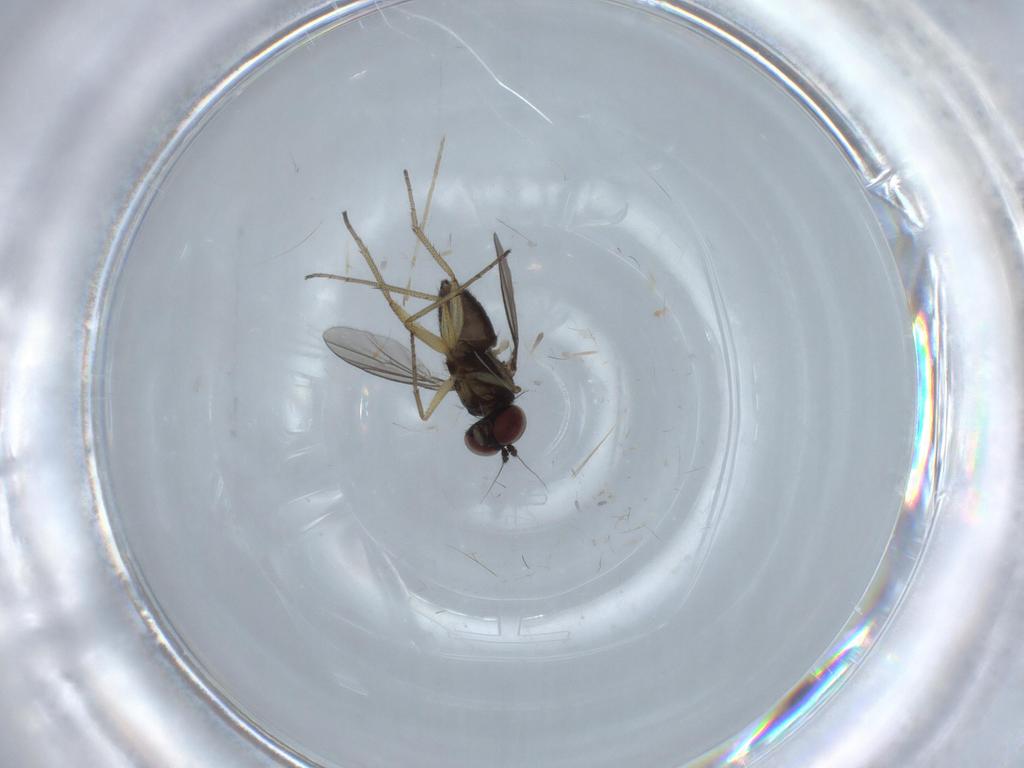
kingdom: Animalia
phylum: Arthropoda
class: Insecta
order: Diptera
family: Dolichopodidae
